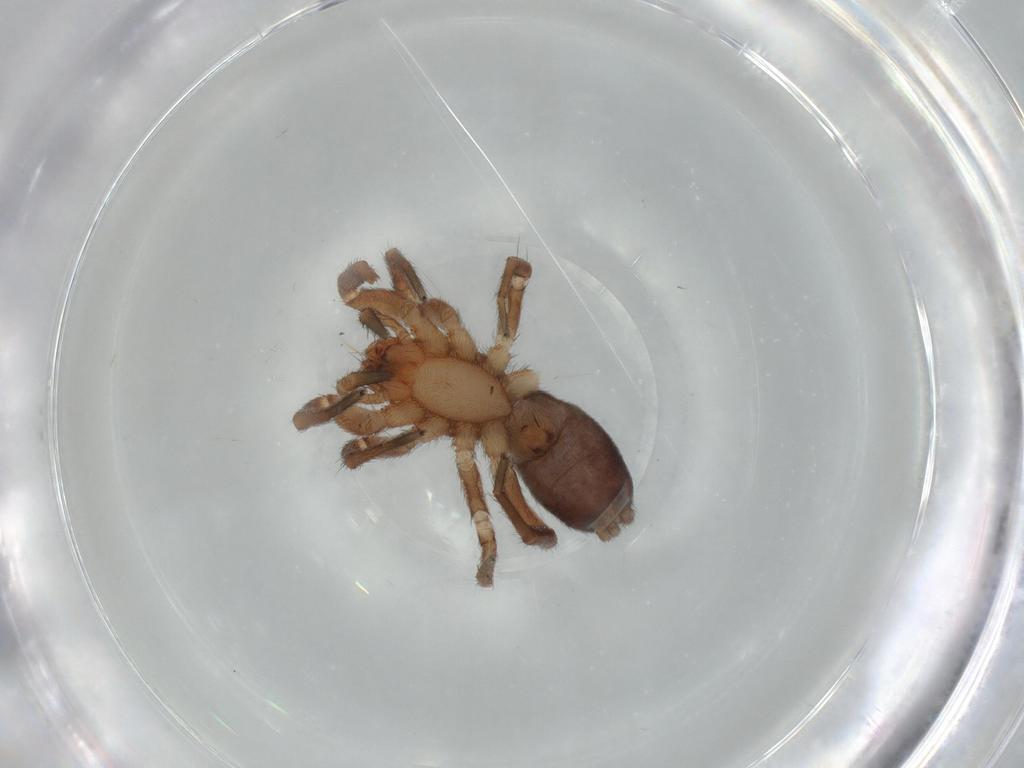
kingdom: Animalia
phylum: Arthropoda
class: Arachnida
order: Araneae
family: Gnaphosidae
